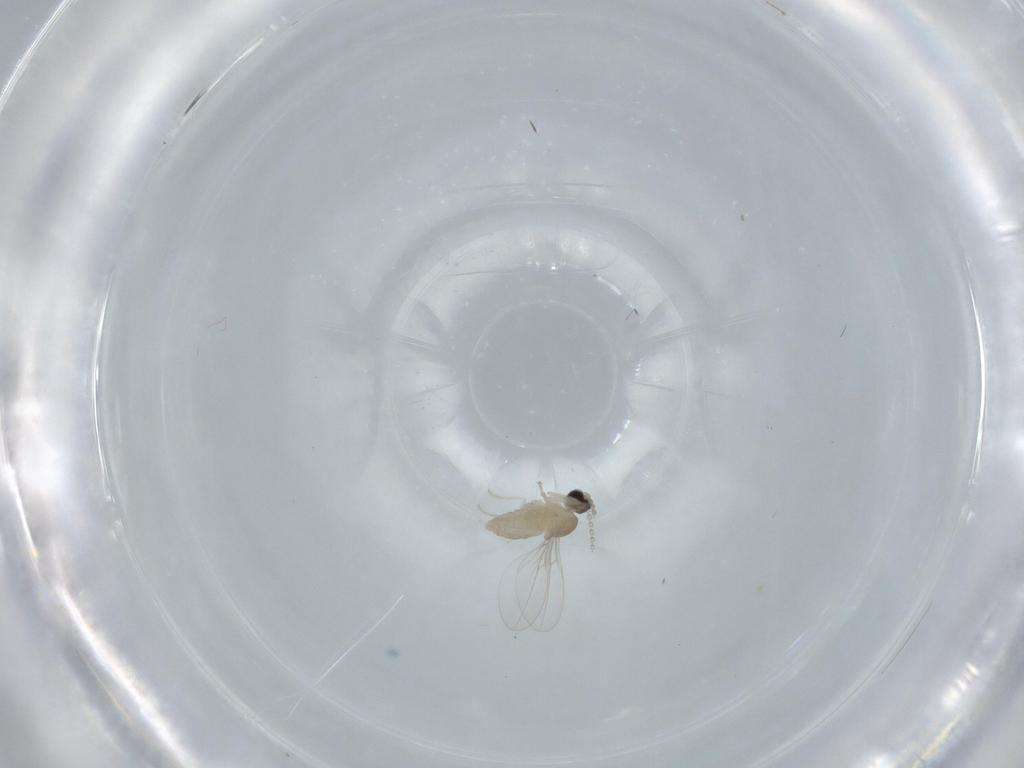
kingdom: Animalia
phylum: Arthropoda
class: Insecta
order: Diptera
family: Cecidomyiidae
